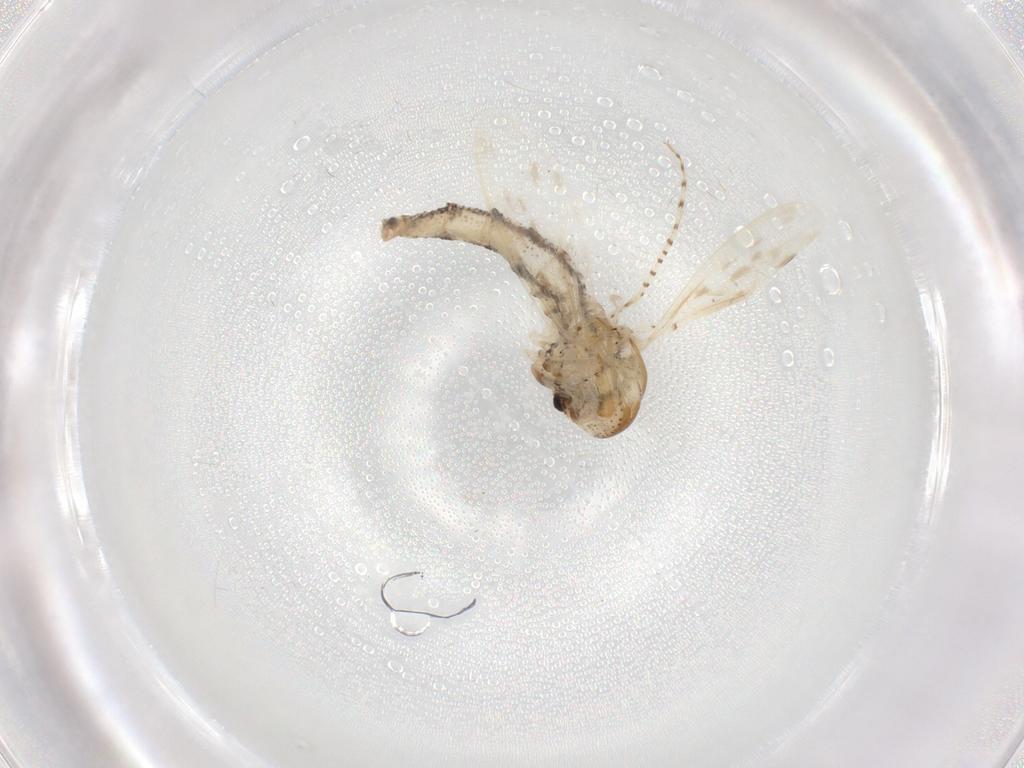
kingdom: Animalia
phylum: Arthropoda
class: Insecta
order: Diptera
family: Chaoboridae
